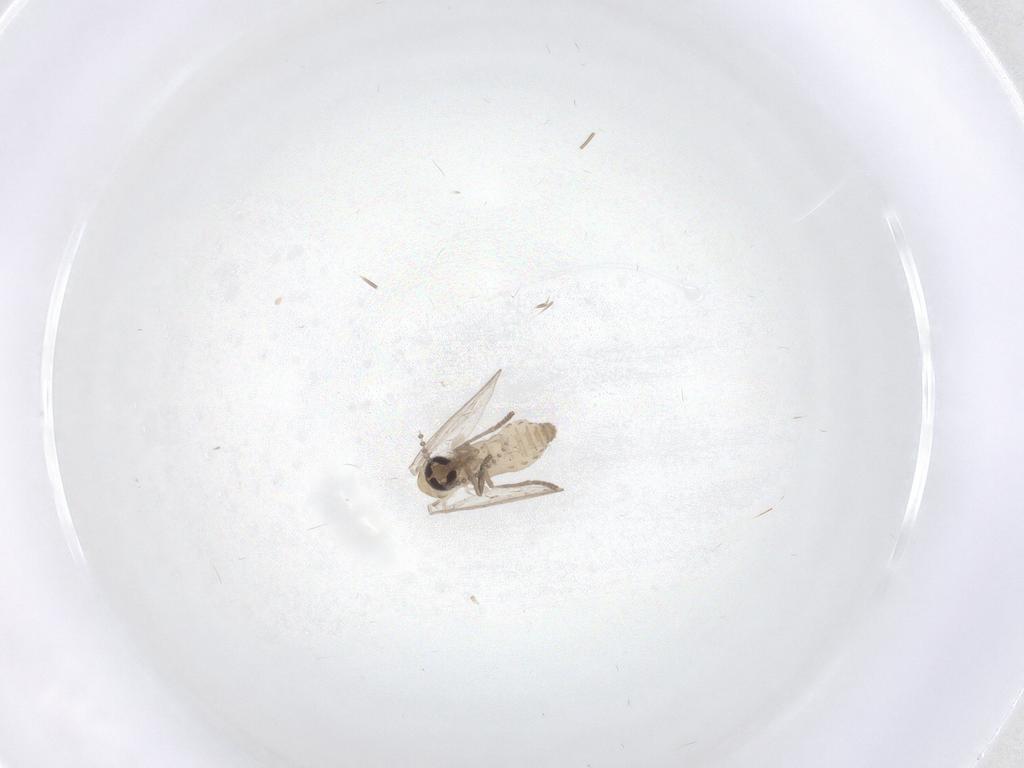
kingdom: Animalia
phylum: Arthropoda
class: Insecta
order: Diptera
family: Psychodidae
